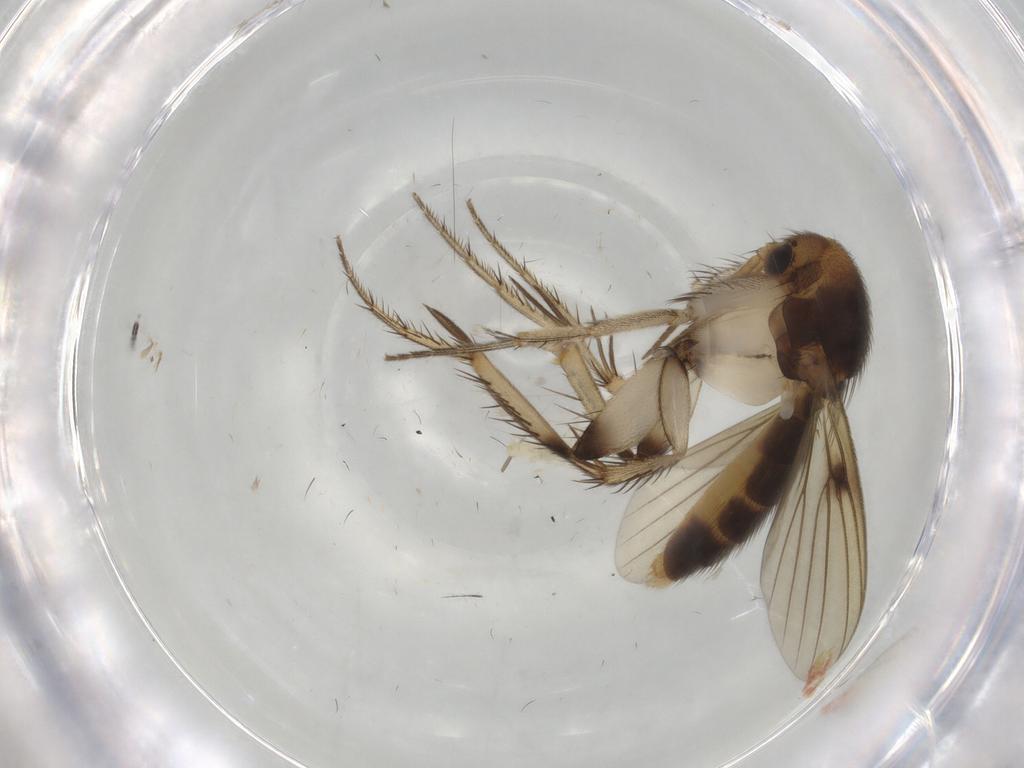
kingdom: Animalia
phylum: Arthropoda
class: Insecta
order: Diptera
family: Mycetophilidae
